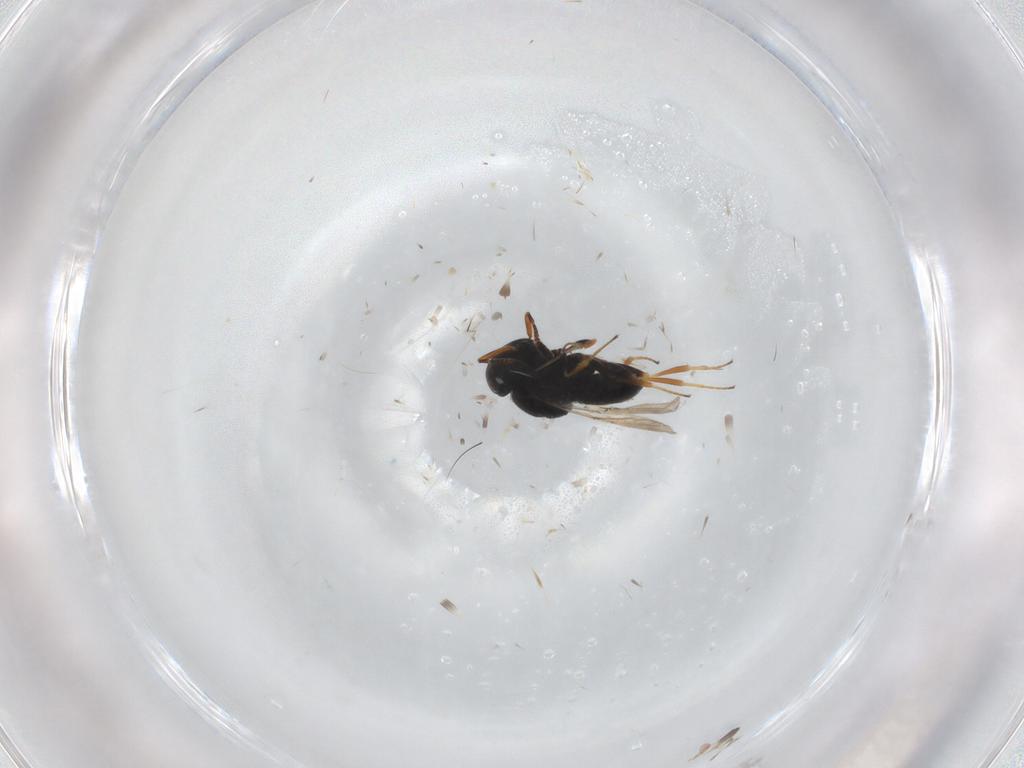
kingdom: Animalia
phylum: Arthropoda
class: Insecta
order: Coleoptera
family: Curculionidae
